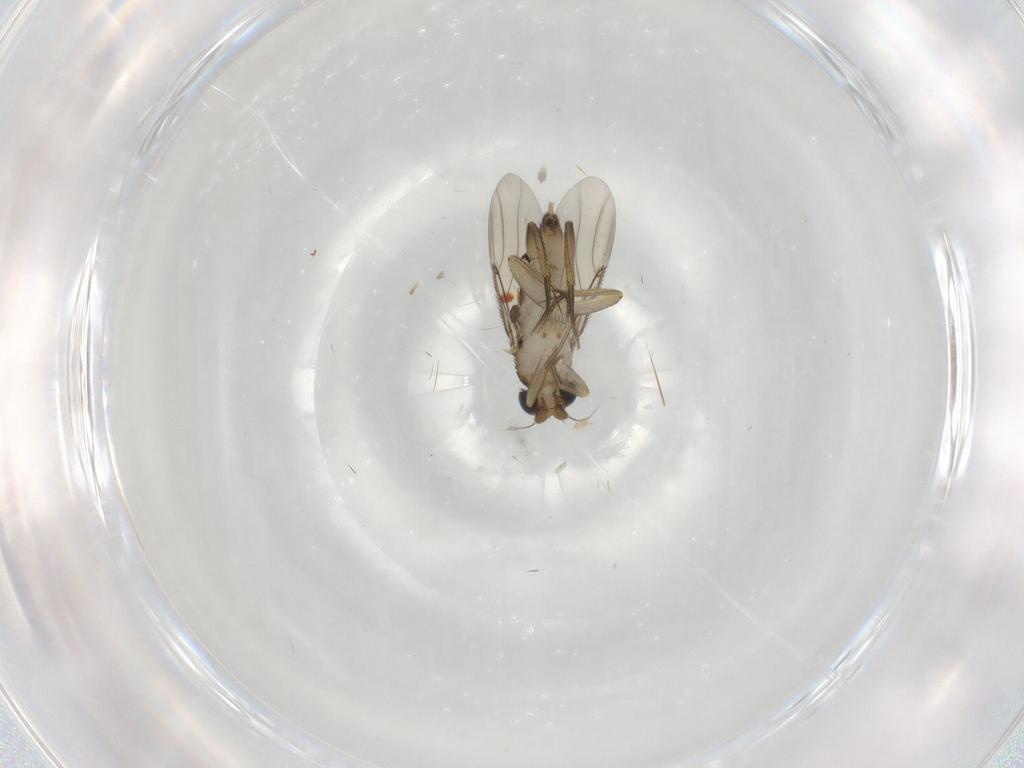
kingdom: Animalia
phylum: Arthropoda
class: Insecta
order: Diptera
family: Phoridae
